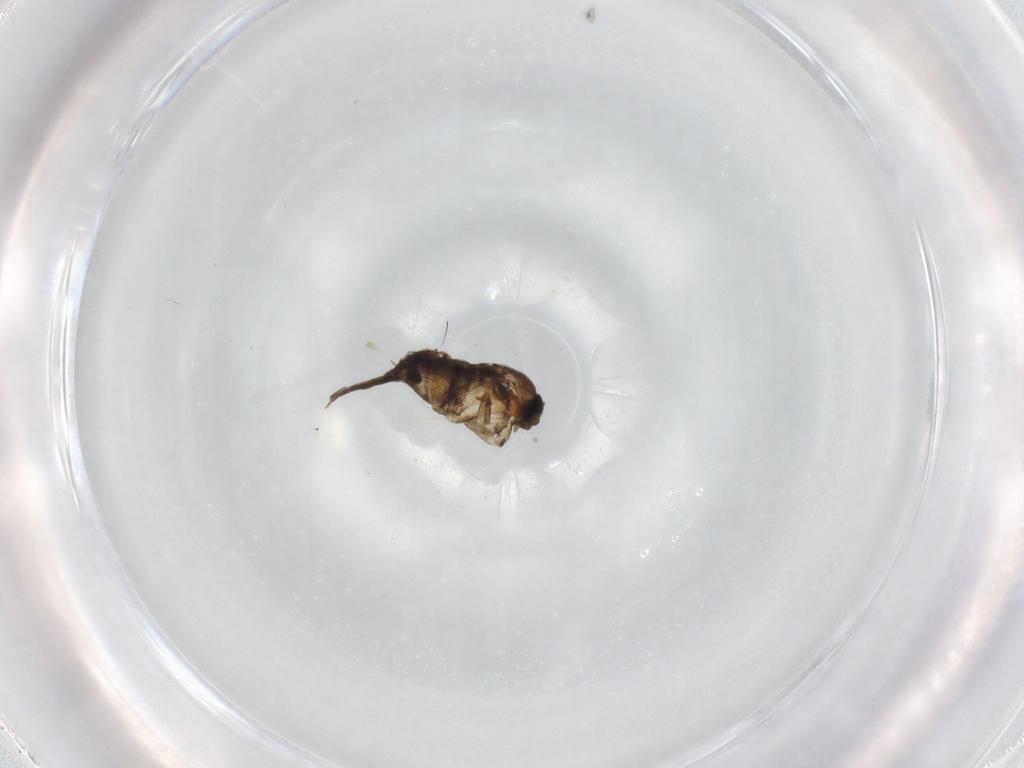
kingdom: Animalia
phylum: Arthropoda
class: Insecta
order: Diptera
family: Phoridae
